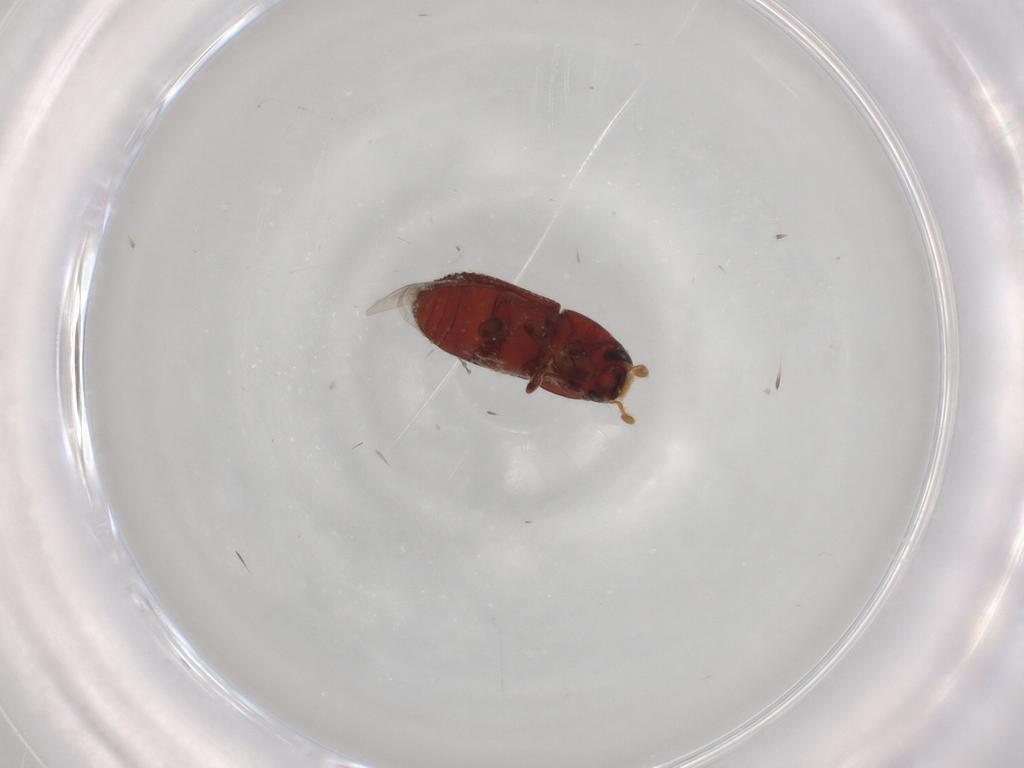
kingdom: Animalia
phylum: Arthropoda
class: Insecta
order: Coleoptera
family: Curculionidae
